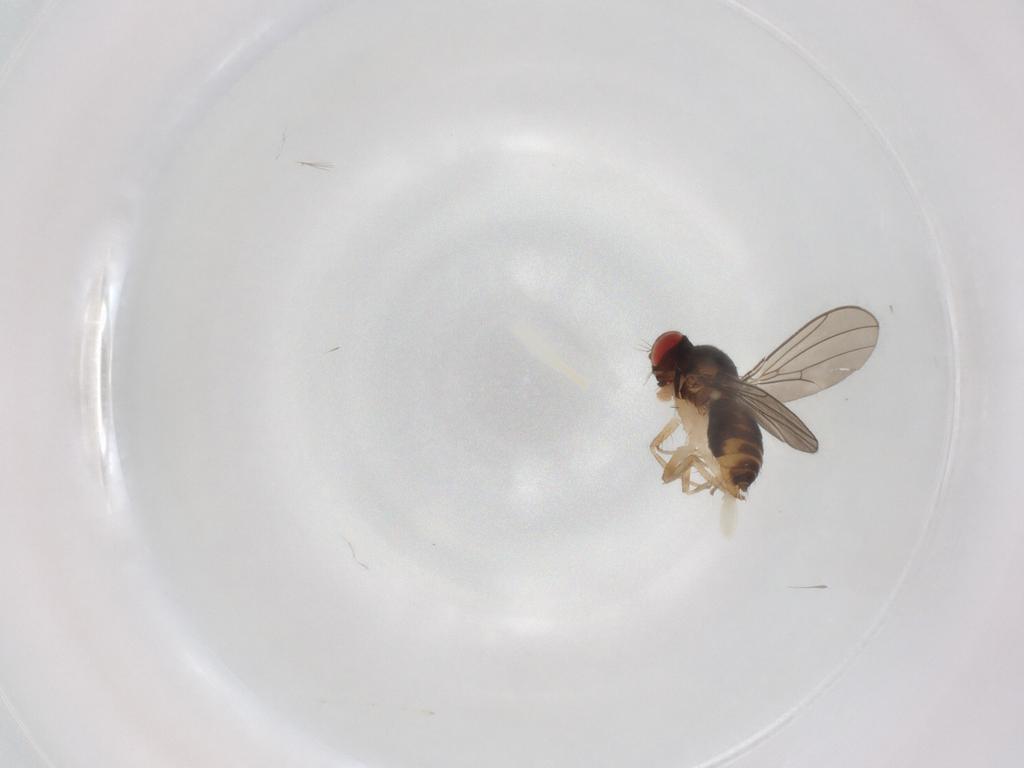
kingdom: Animalia
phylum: Arthropoda
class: Insecta
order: Diptera
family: Drosophilidae
